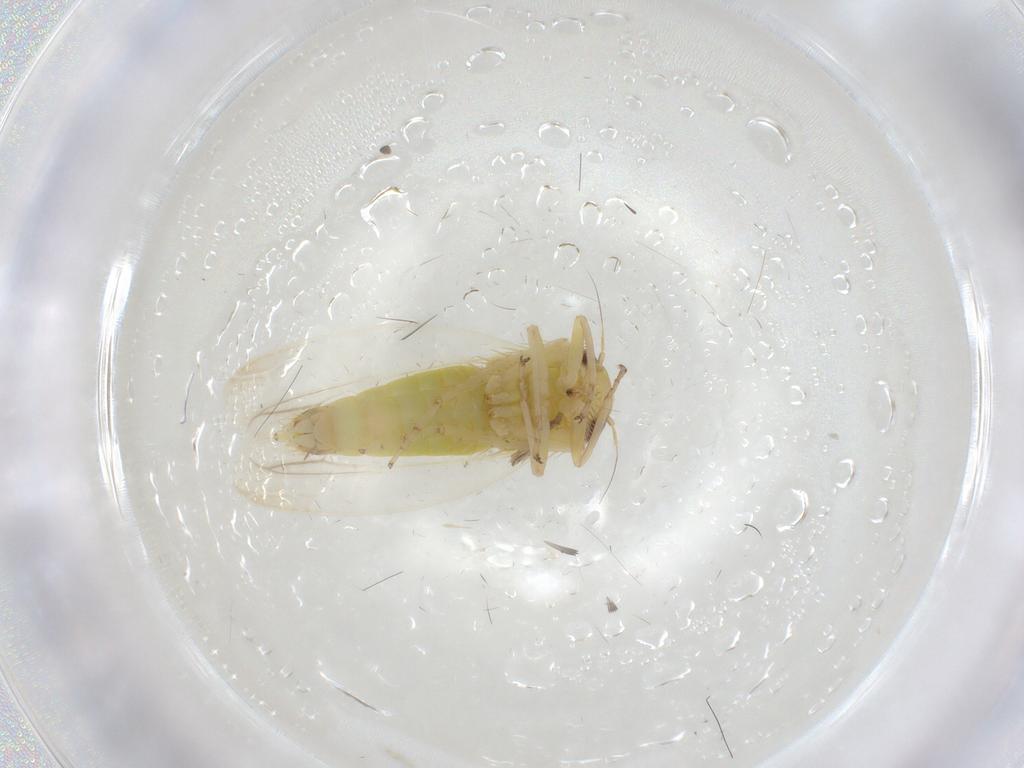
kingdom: Animalia
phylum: Arthropoda
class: Insecta
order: Hemiptera
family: Cicadellidae
